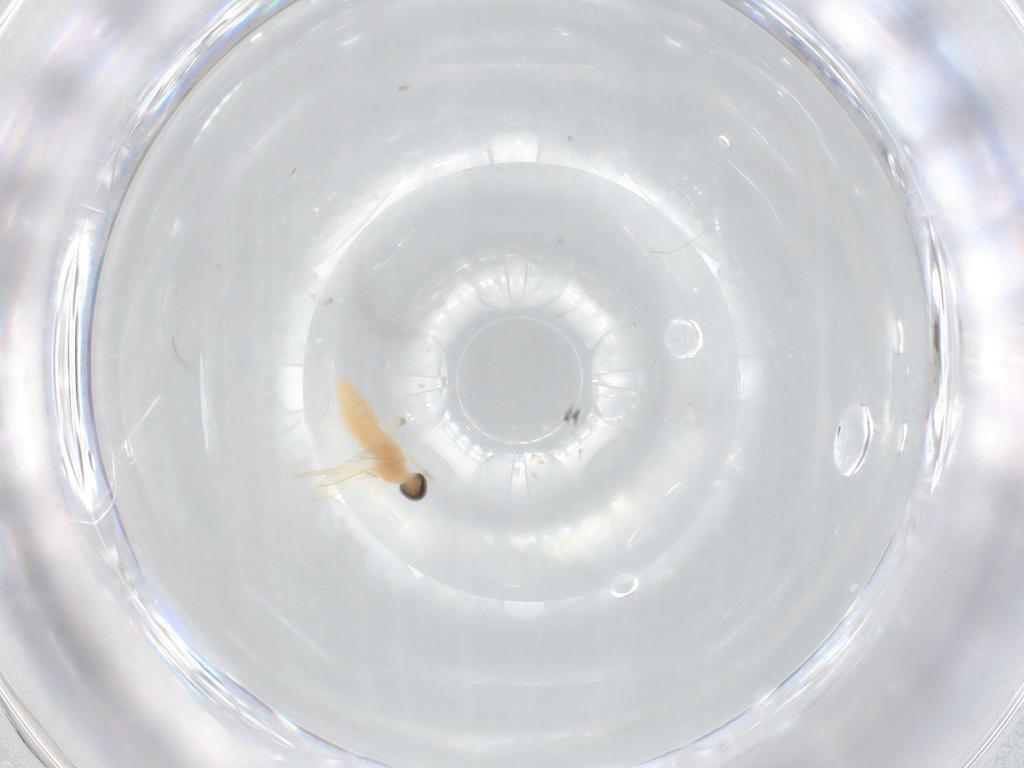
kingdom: Animalia
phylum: Arthropoda
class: Insecta
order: Diptera
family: Cecidomyiidae
